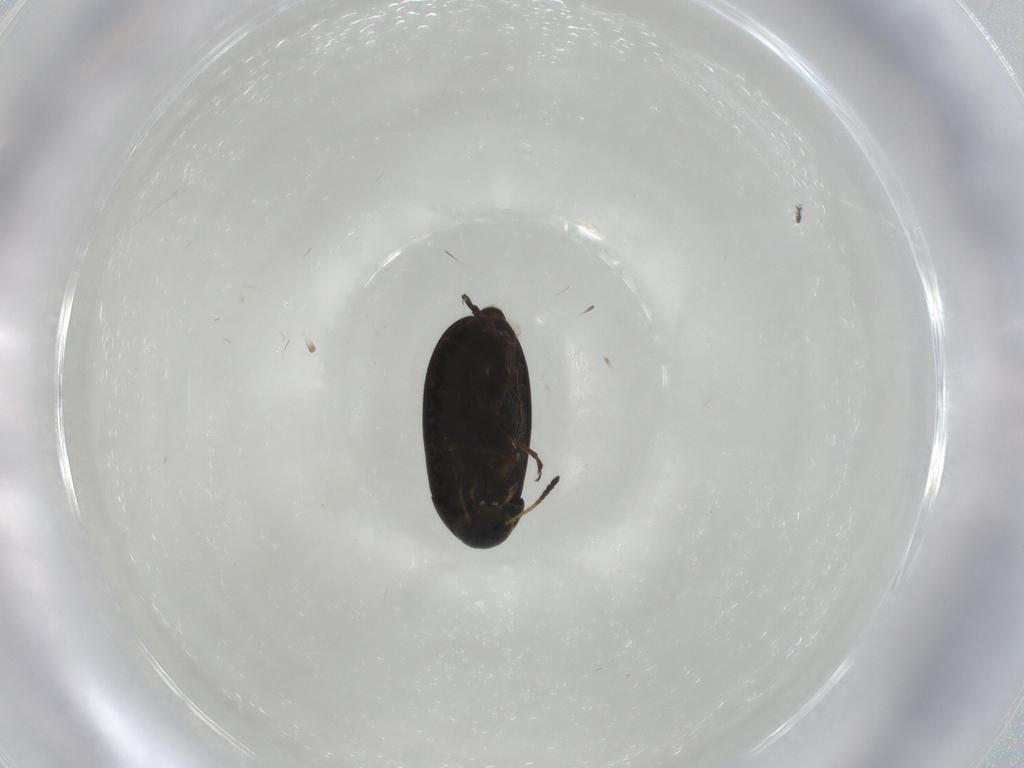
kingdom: Animalia
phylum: Arthropoda
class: Insecta
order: Coleoptera
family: Scraptiidae
